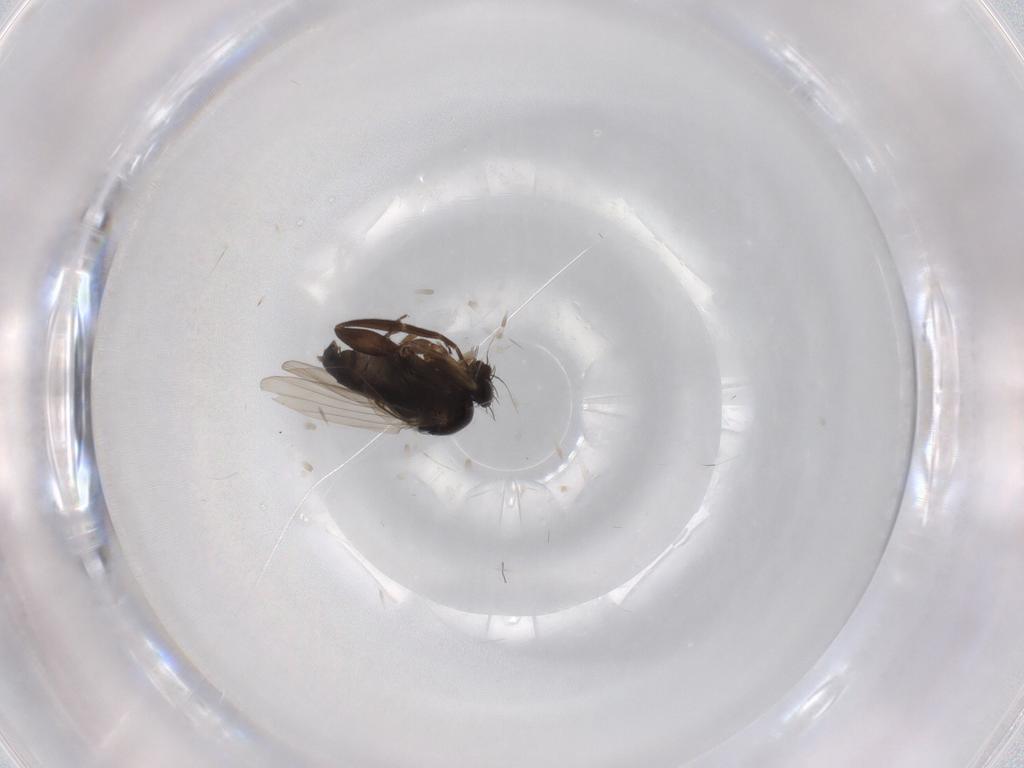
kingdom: Animalia
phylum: Arthropoda
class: Insecta
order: Diptera
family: Phoridae
